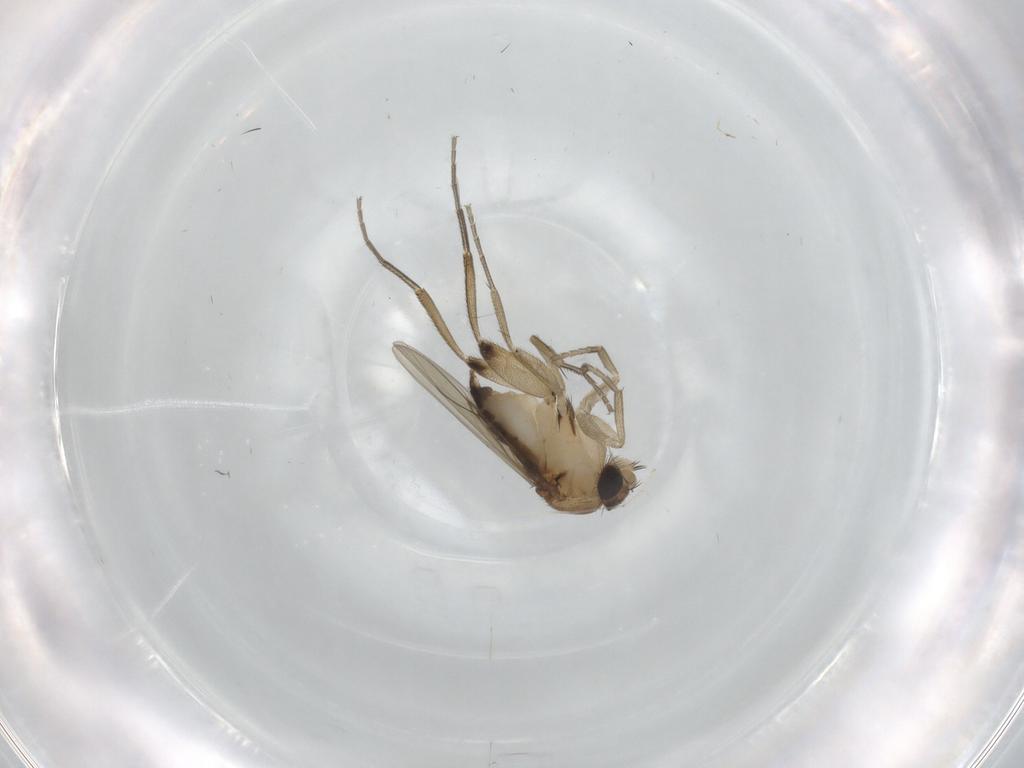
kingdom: Animalia
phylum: Arthropoda
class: Insecta
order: Diptera
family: Phoridae
